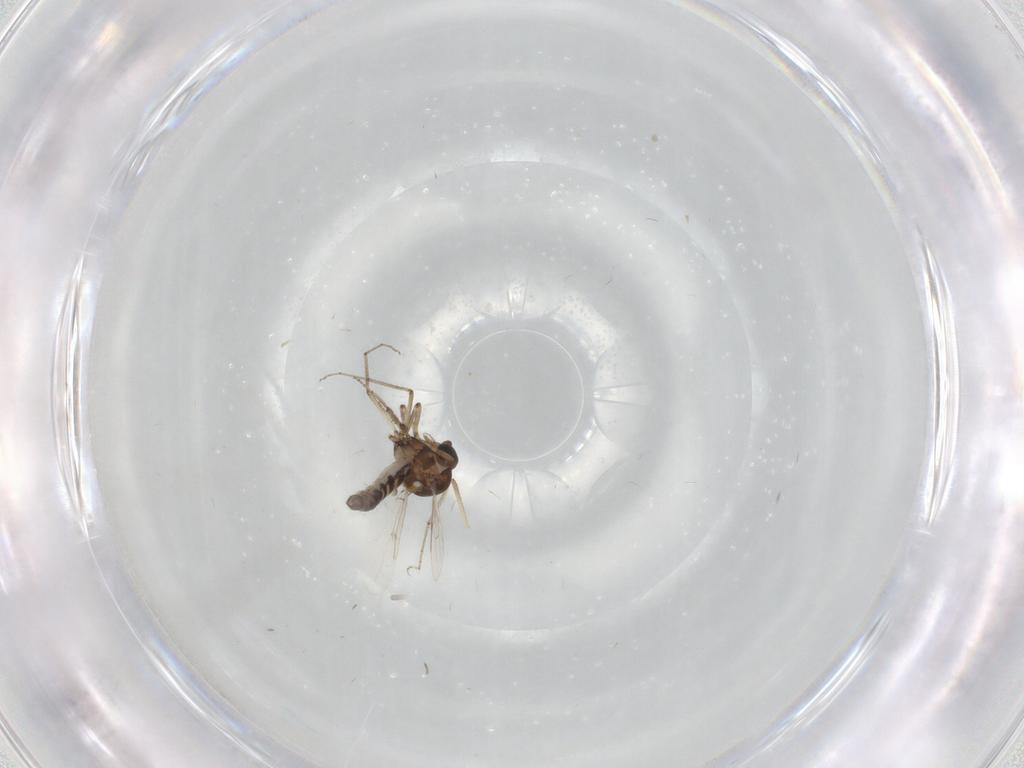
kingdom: Animalia
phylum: Arthropoda
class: Insecta
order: Diptera
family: Ceratopogonidae
